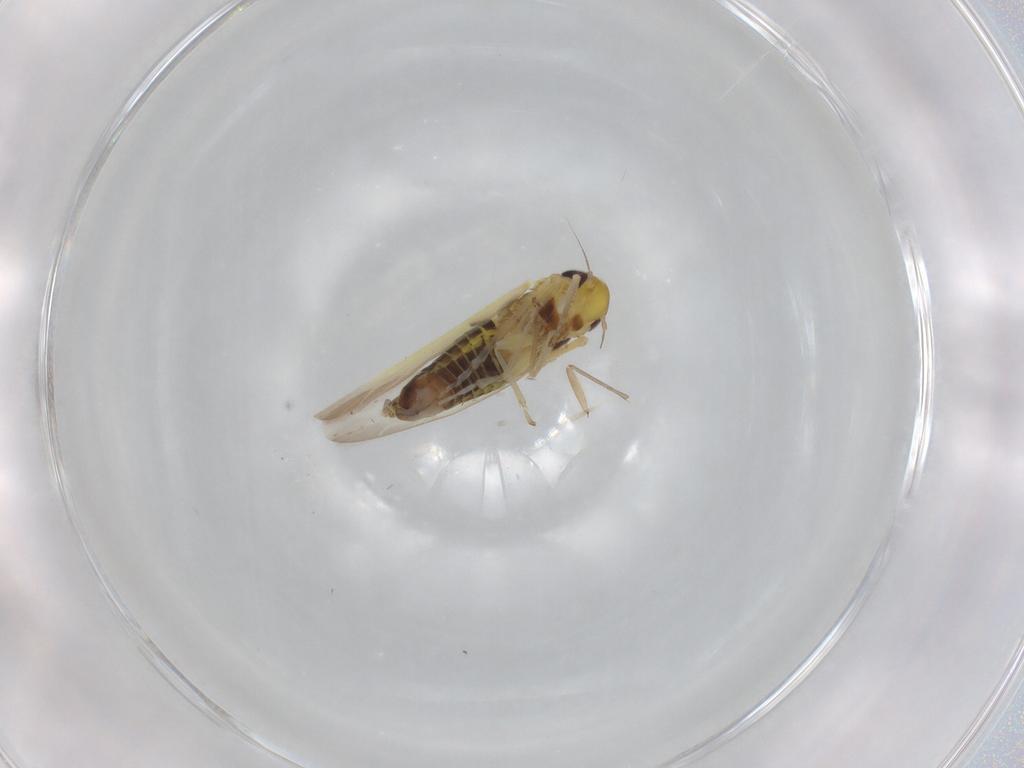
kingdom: Animalia
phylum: Arthropoda
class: Insecta
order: Hemiptera
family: Cicadellidae
